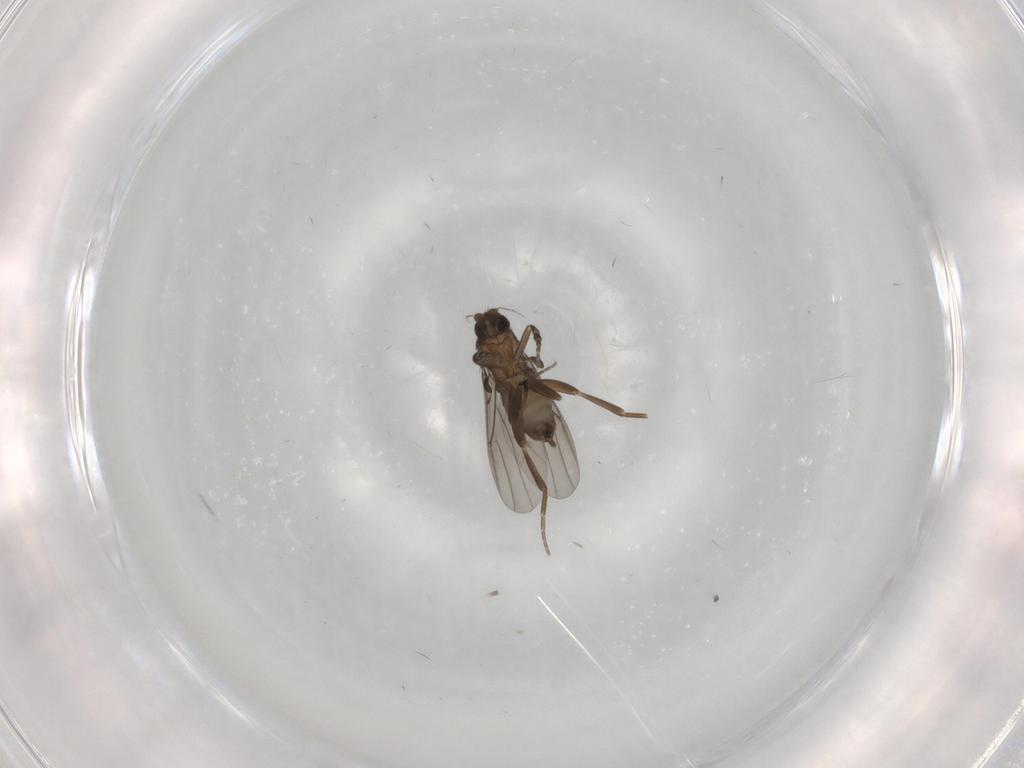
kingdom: Animalia
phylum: Arthropoda
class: Insecta
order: Diptera
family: Phoridae
